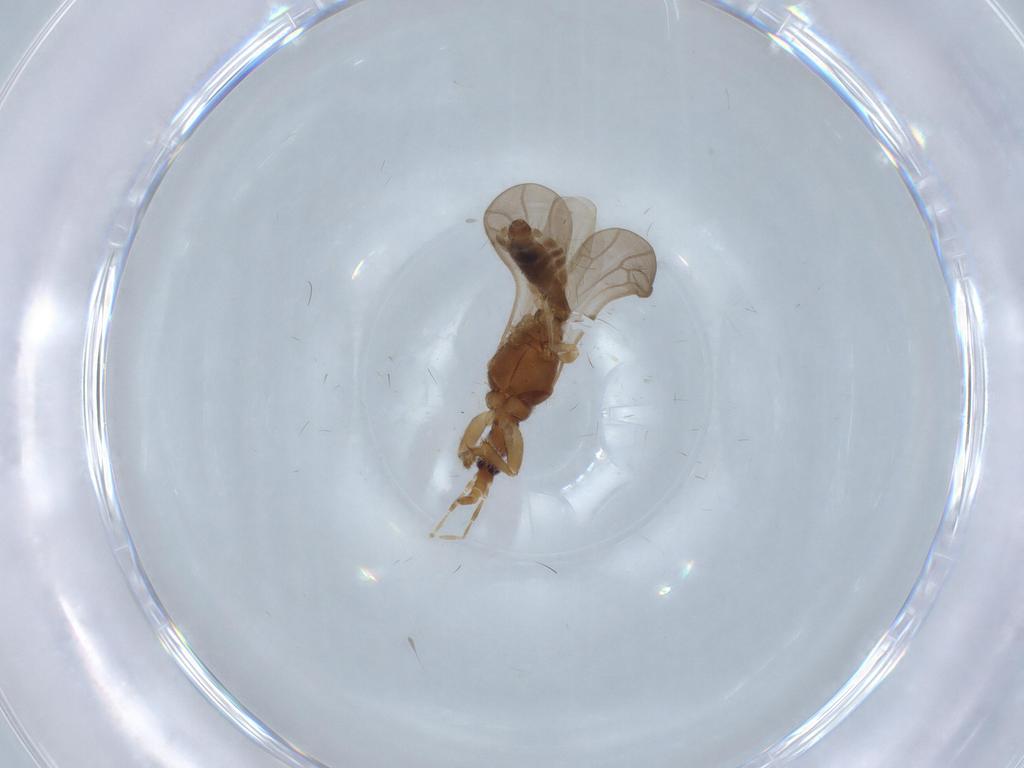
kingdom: Animalia
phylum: Arthropoda
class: Insecta
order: Hemiptera
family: Enicocephalidae
